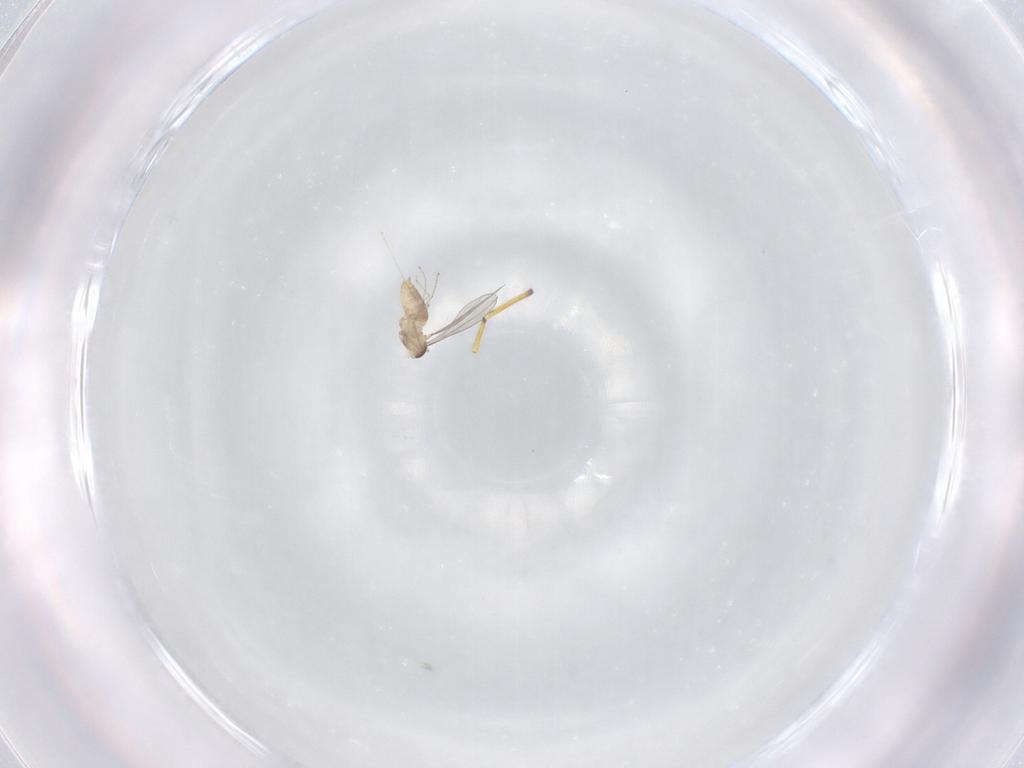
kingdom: Animalia
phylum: Arthropoda
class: Insecta
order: Diptera
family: Cecidomyiidae
